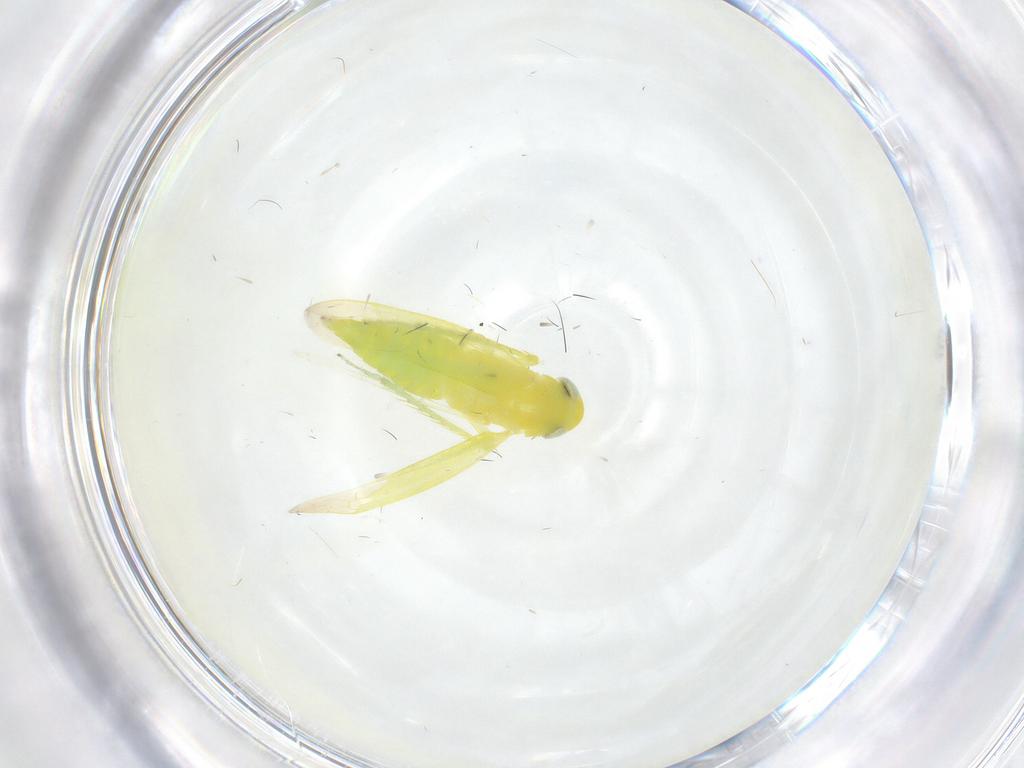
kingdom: Animalia
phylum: Arthropoda
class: Insecta
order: Hemiptera
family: Cicadellidae
